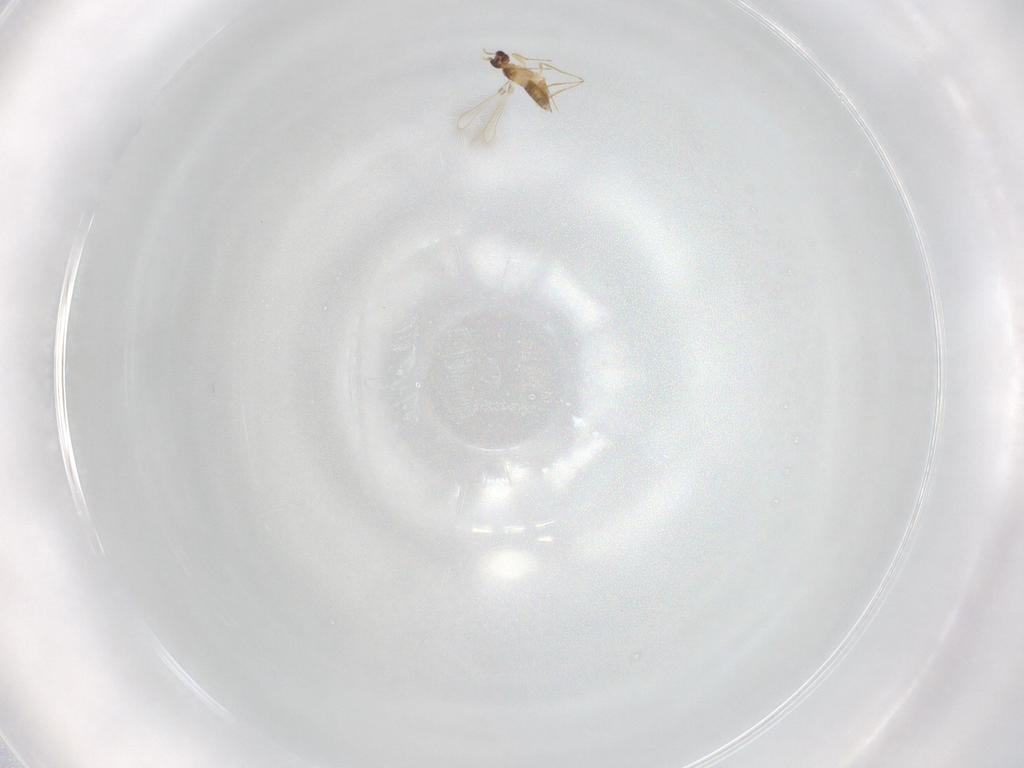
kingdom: Animalia
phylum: Arthropoda
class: Insecta
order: Hymenoptera
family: Mymaridae
